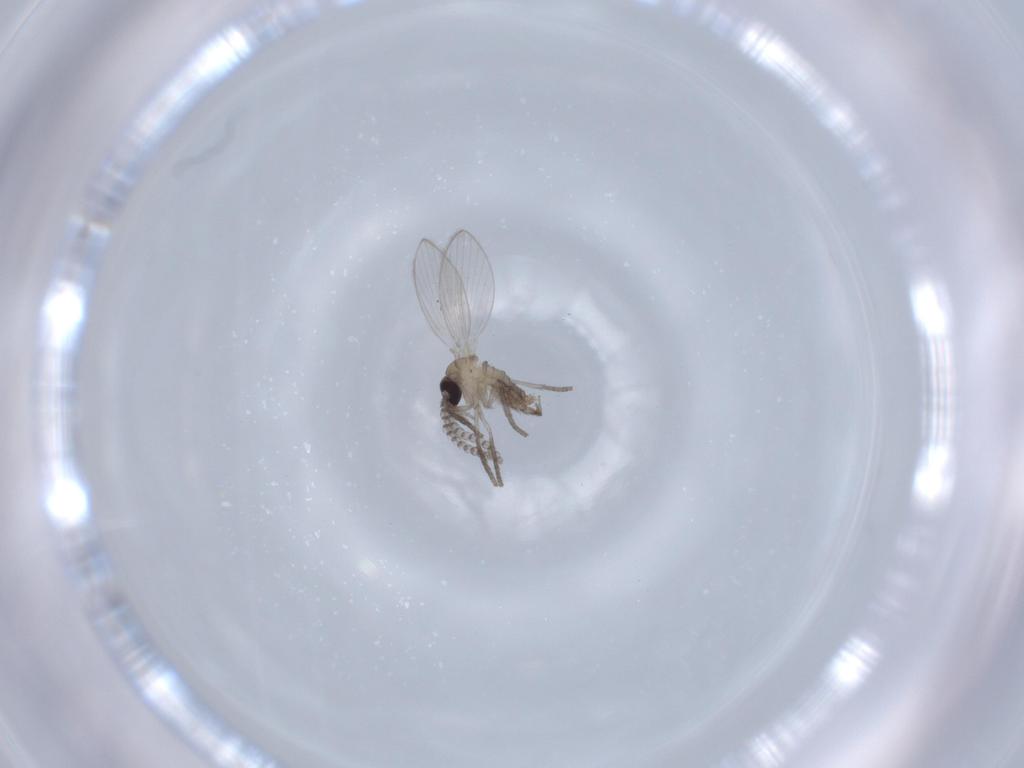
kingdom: Animalia
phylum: Arthropoda
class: Insecta
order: Diptera
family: Psychodidae
